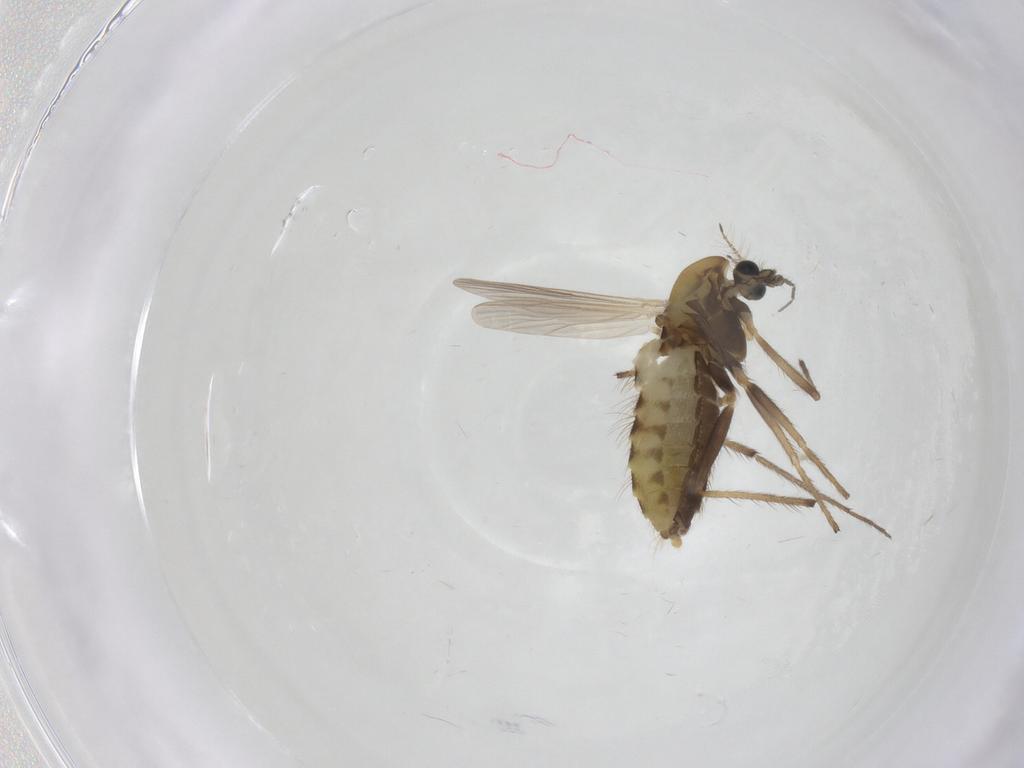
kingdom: Animalia
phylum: Arthropoda
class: Insecta
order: Diptera
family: Chironomidae
